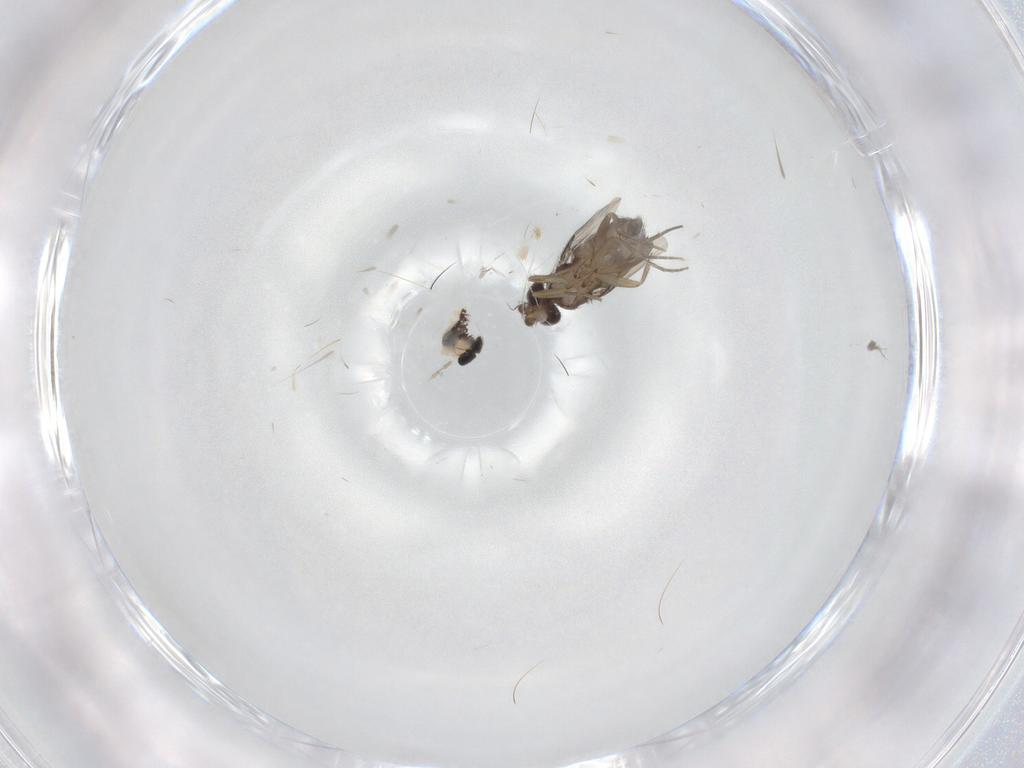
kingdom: Animalia
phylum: Arthropoda
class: Insecta
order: Diptera
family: Phoridae
